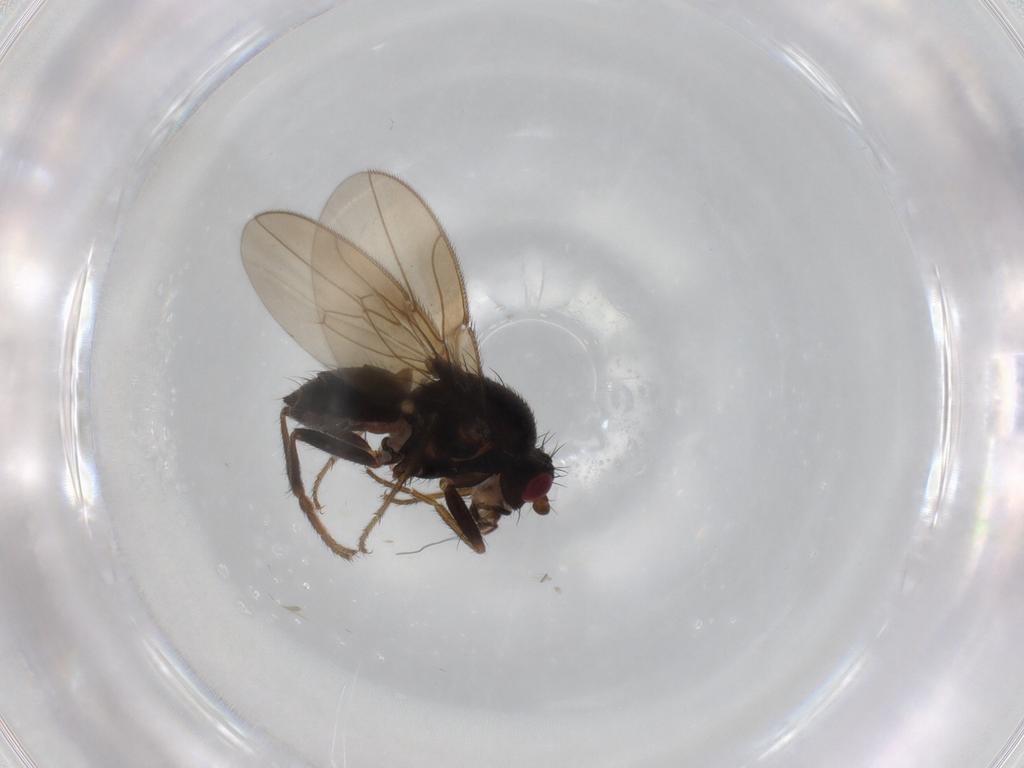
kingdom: Animalia
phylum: Arthropoda
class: Insecta
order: Diptera
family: Sphaeroceridae
